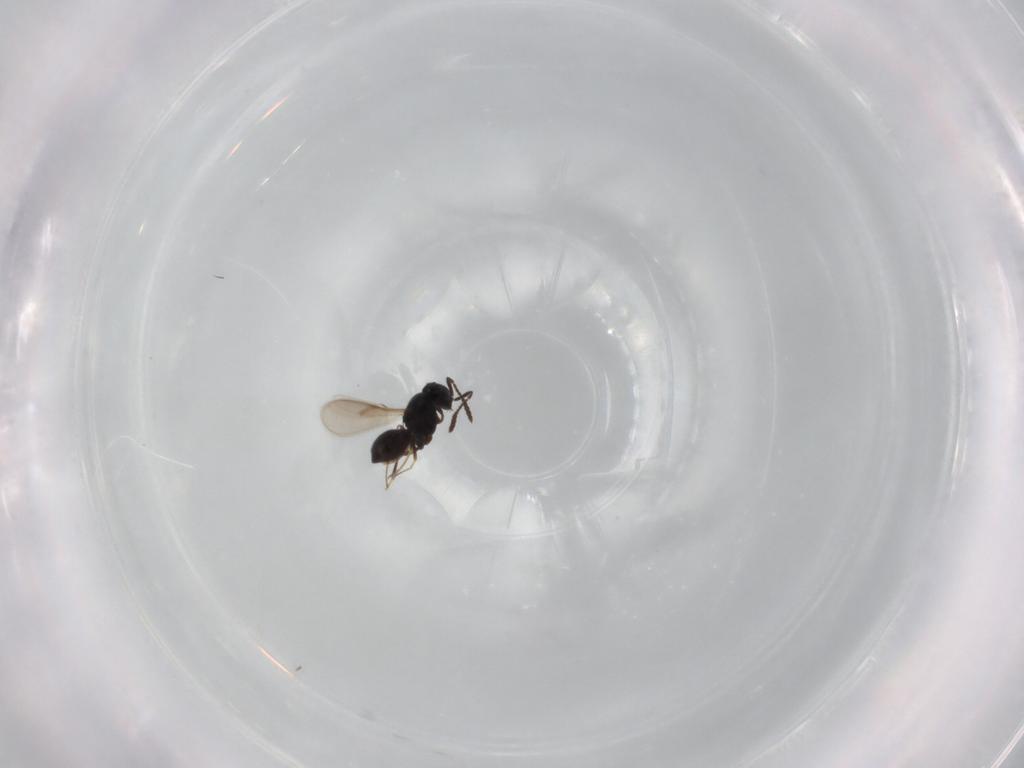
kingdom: Animalia
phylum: Arthropoda
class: Insecta
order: Hymenoptera
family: Scelionidae
